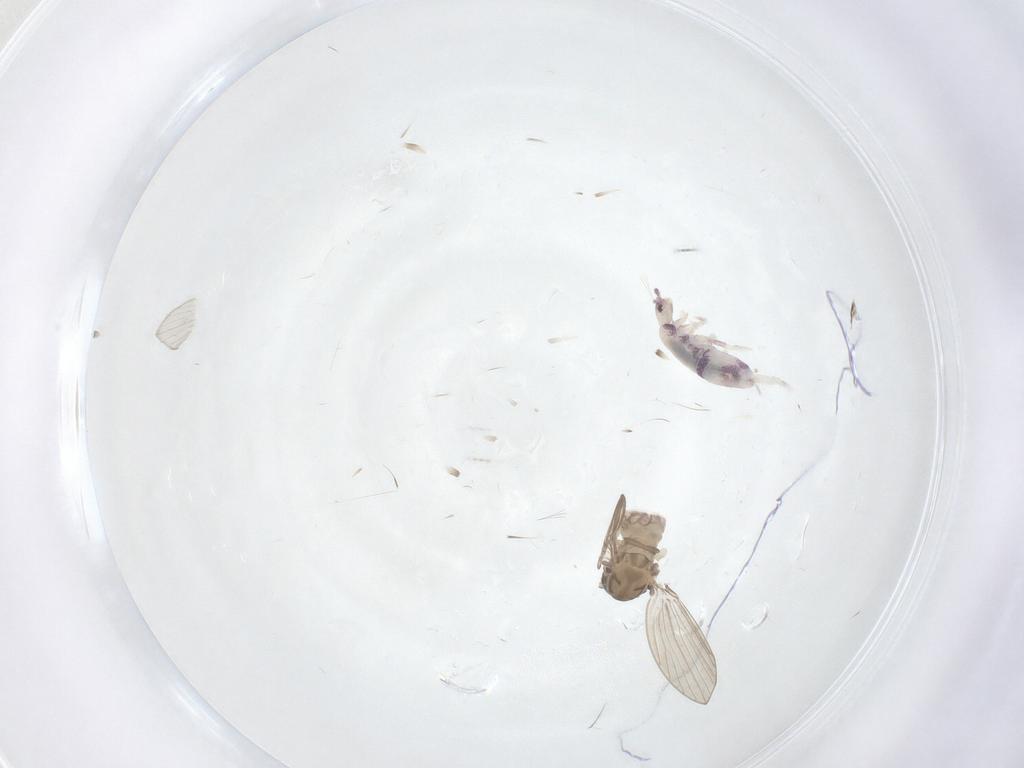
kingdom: Animalia
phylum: Arthropoda
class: Insecta
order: Diptera
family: Psychodidae
